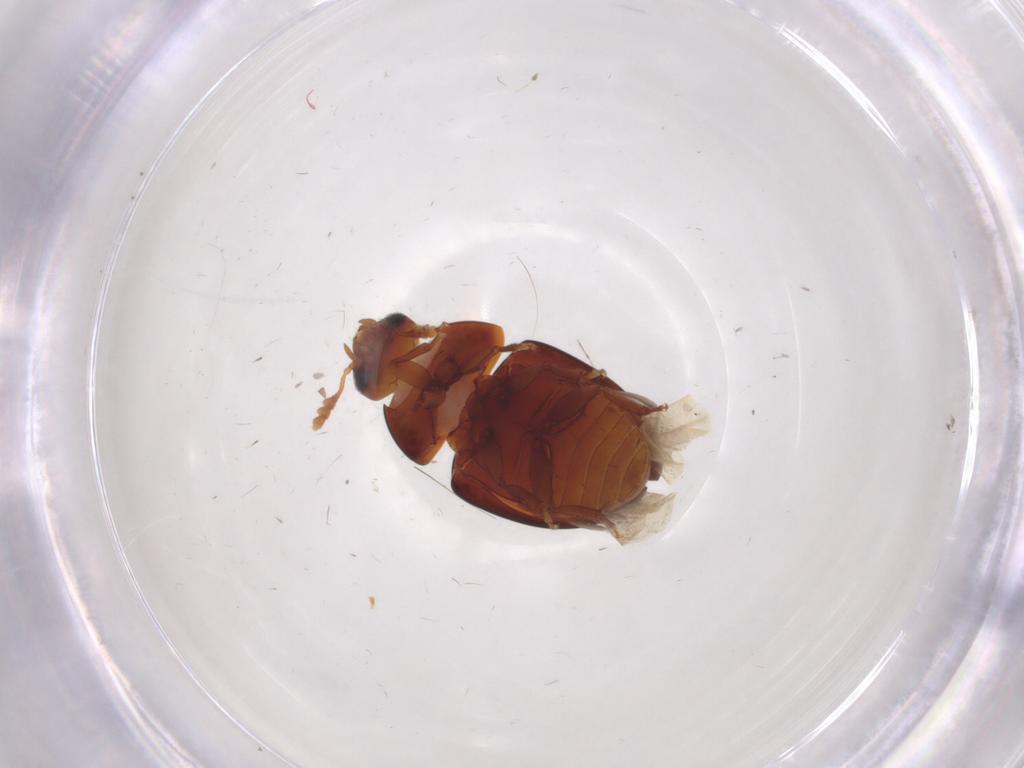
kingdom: Animalia
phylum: Arthropoda
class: Insecta
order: Coleoptera
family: Phalacridae
